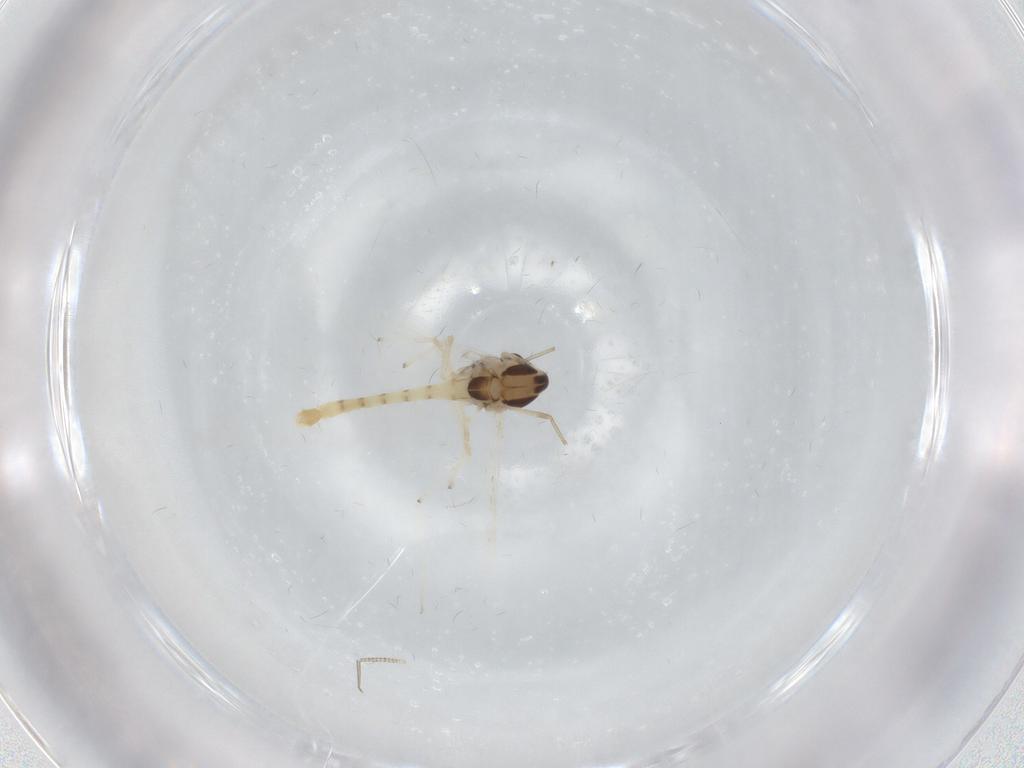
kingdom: Animalia
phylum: Arthropoda
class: Insecta
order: Diptera
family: Chironomidae
